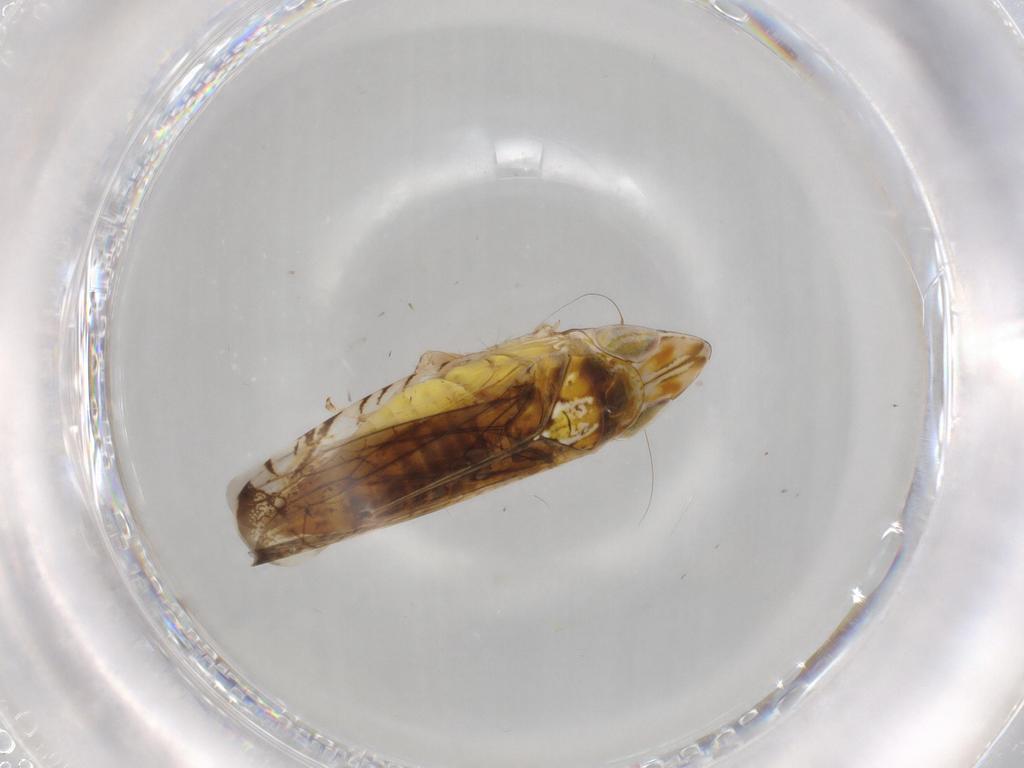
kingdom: Animalia
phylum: Arthropoda
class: Insecta
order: Hemiptera
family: Cicadellidae
